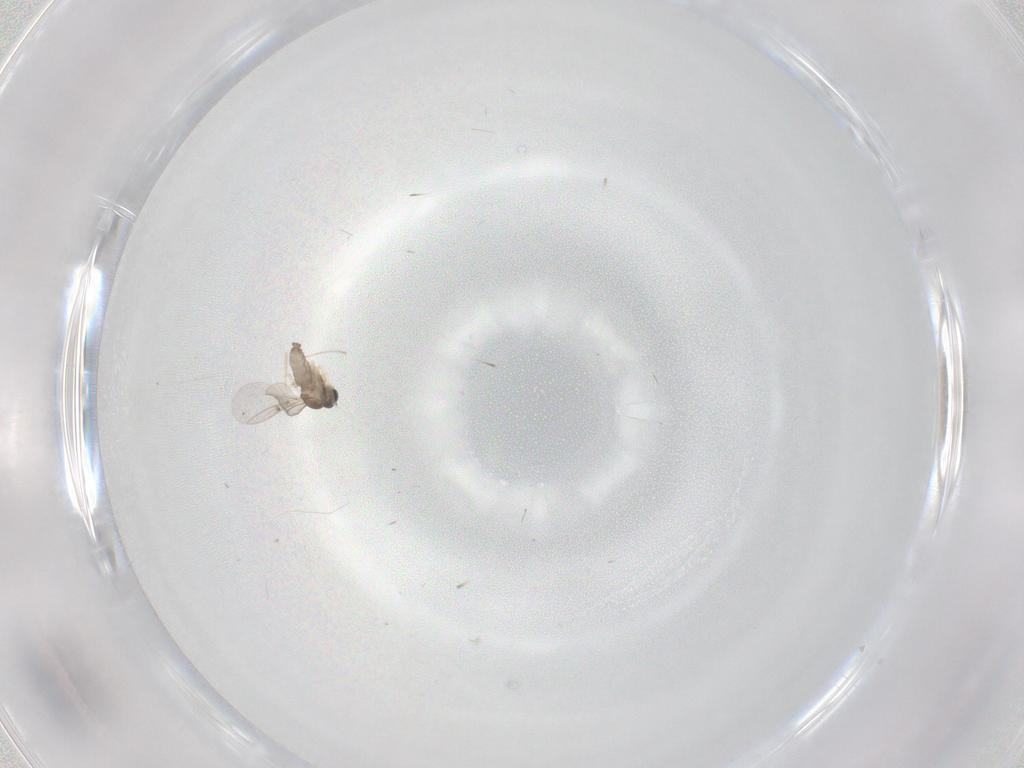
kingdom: Animalia
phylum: Arthropoda
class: Insecta
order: Diptera
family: Cecidomyiidae
